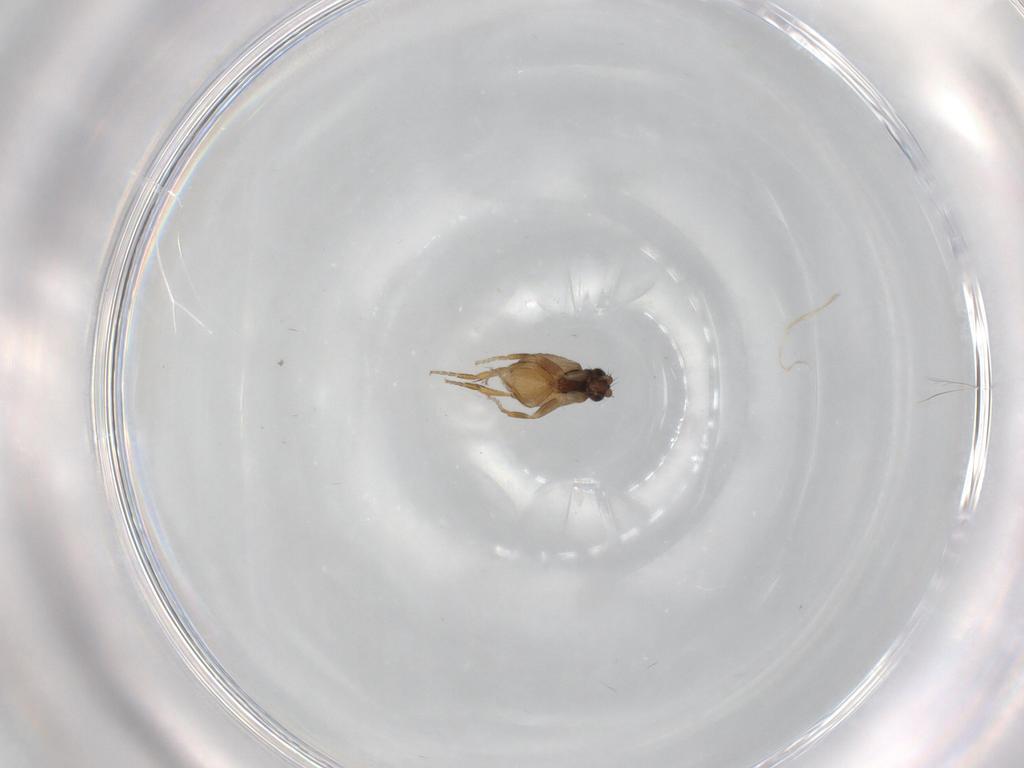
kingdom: Animalia
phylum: Arthropoda
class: Insecta
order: Diptera
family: Phoridae
